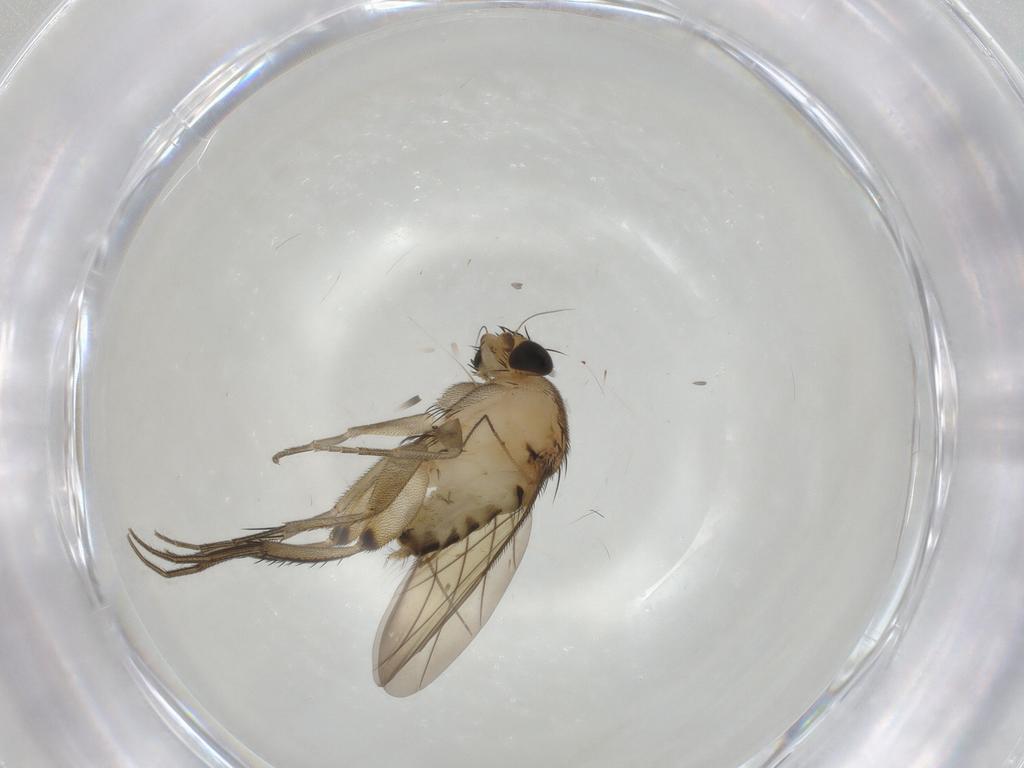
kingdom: Animalia
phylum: Arthropoda
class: Insecta
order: Diptera
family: Phoridae
